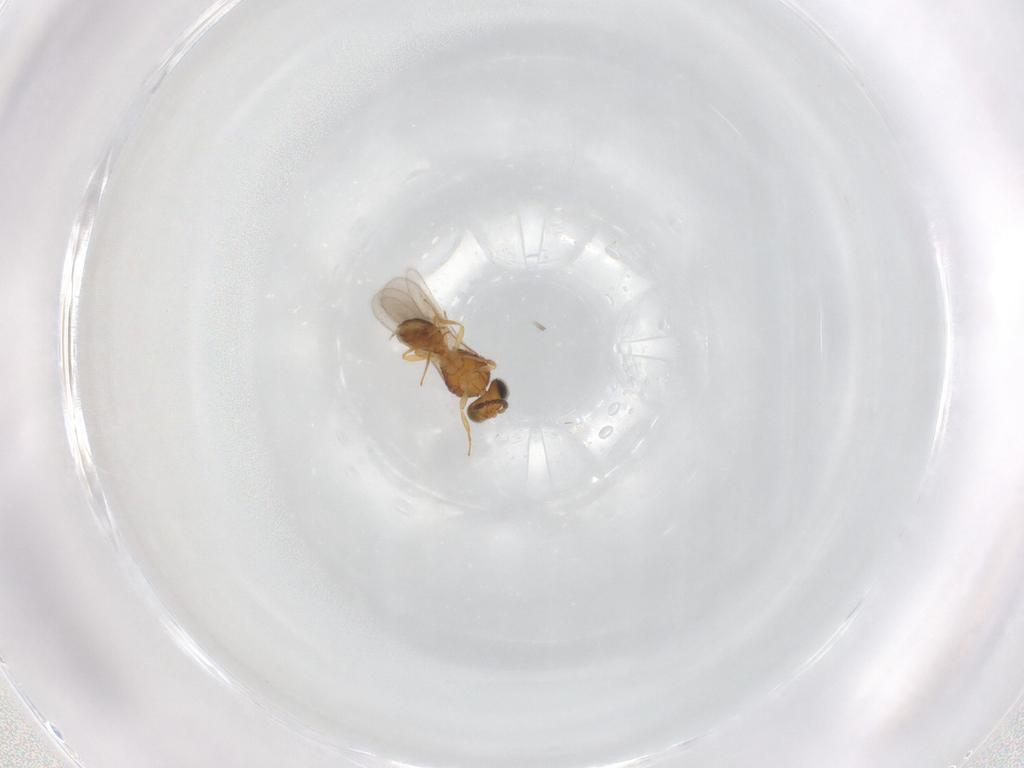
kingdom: Animalia
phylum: Arthropoda
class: Insecta
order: Hymenoptera
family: Scelionidae
